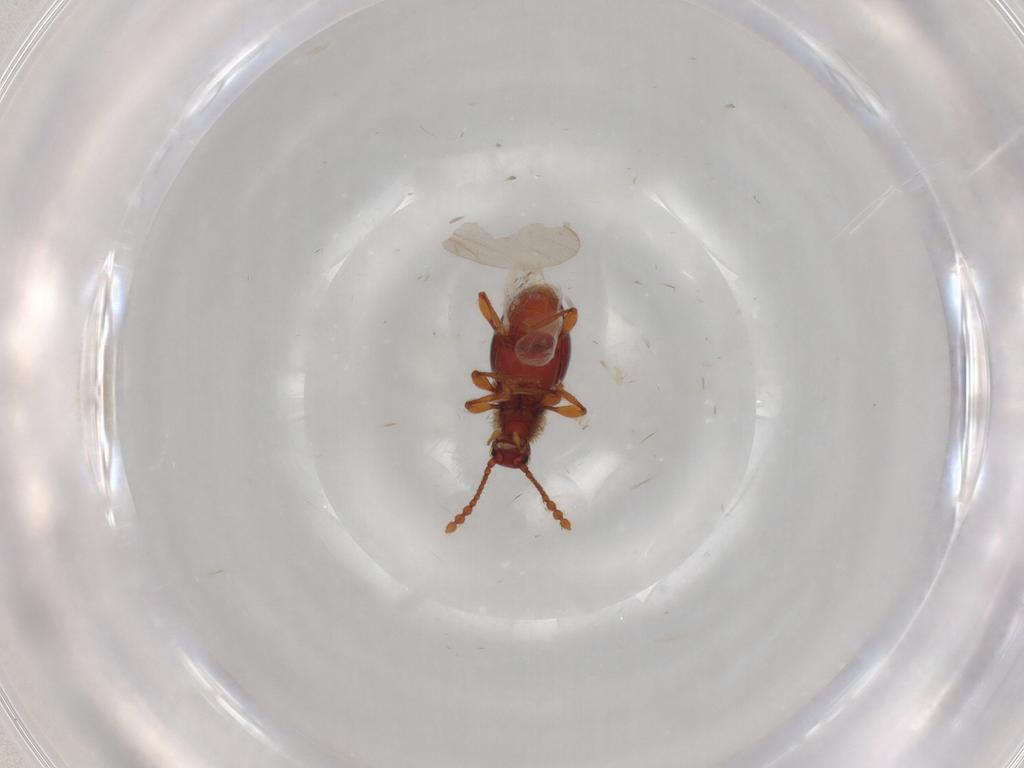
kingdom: Animalia
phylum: Arthropoda
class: Insecta
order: Coleoptera
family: Staphylinidae
